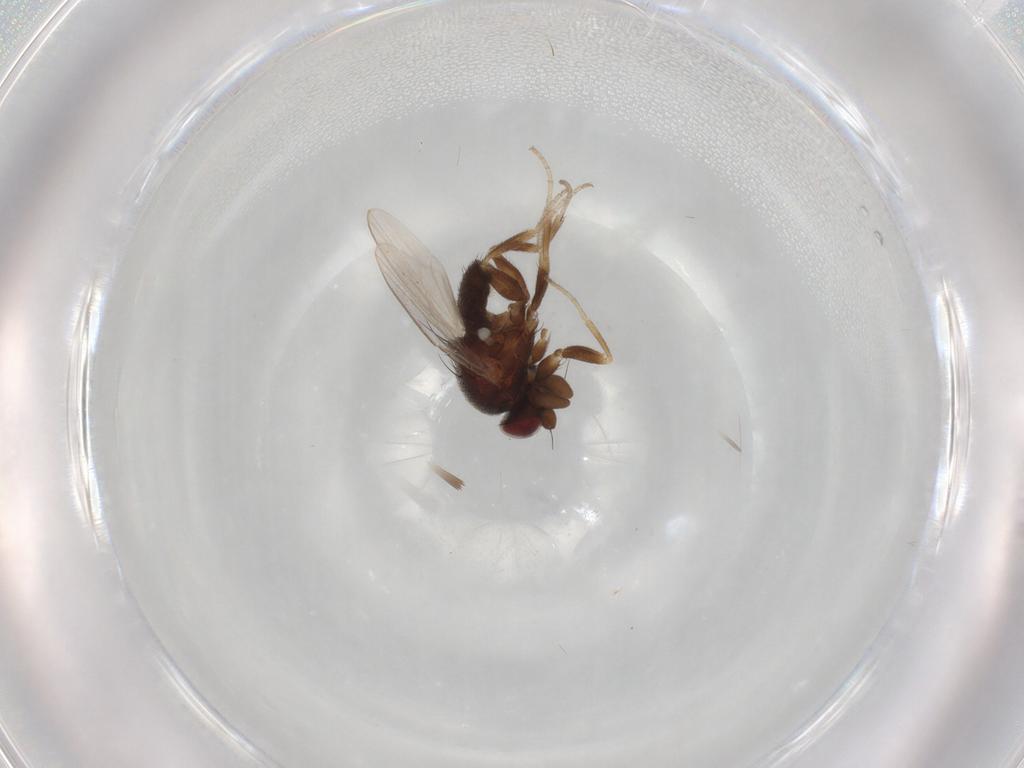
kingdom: Animalia
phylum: Arthropoda
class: Insecta
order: Diptera
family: Milichiidae
